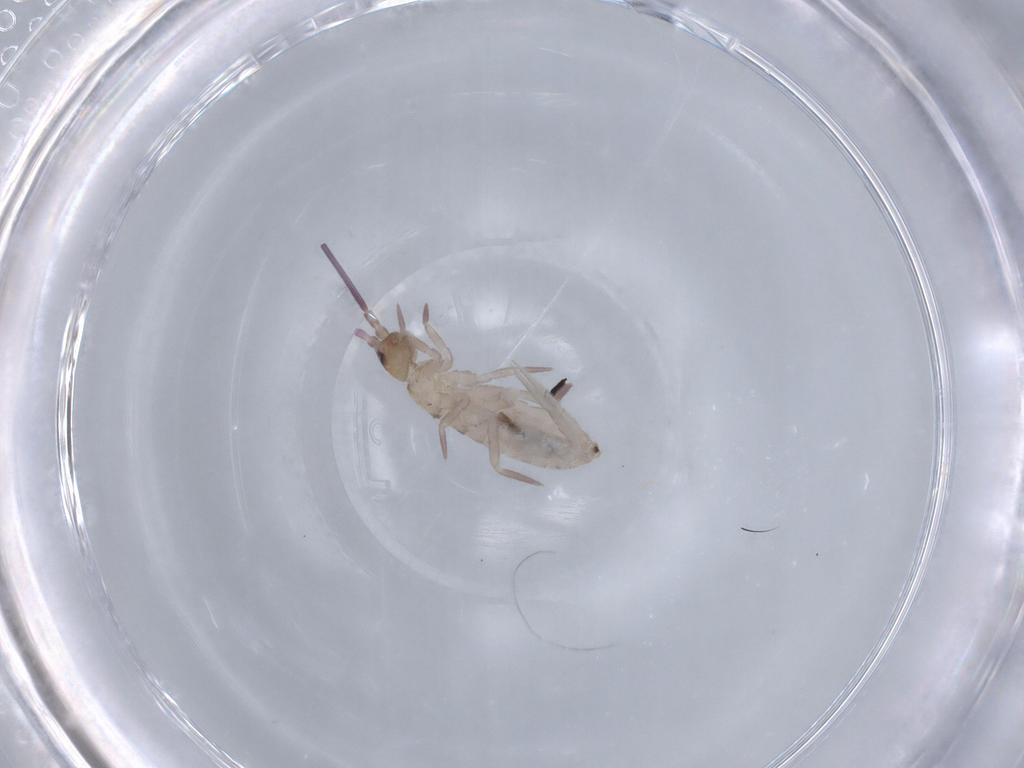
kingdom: Animalia
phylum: Arthropoda
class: Collembola
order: Entomobryomorpha
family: Tomoceridae
